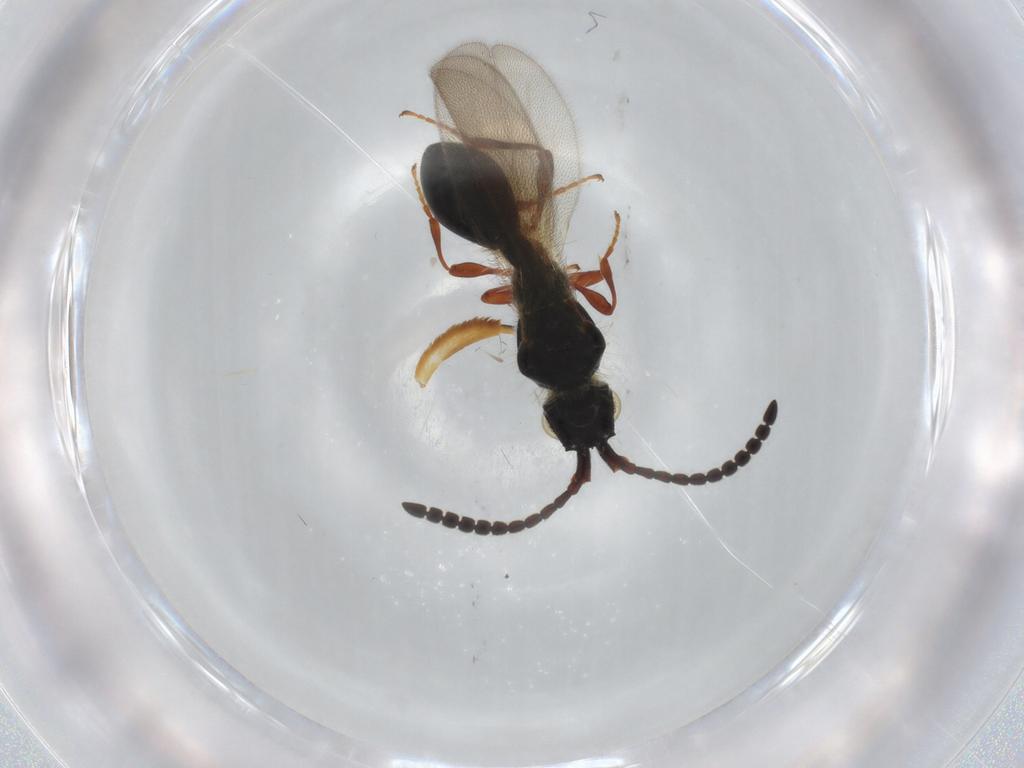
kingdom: Animalia
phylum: Arthropoda
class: Insecta
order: Hymenoptera
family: Diapriidae
